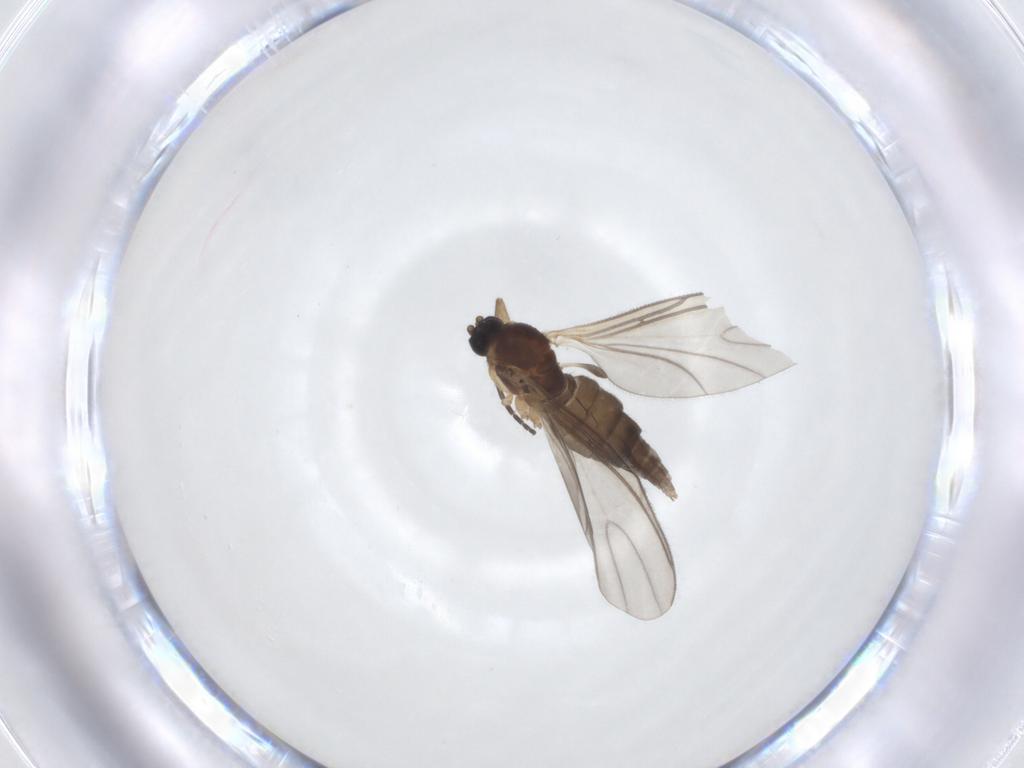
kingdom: Animalia
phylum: Arthropoda
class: Insecta
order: Diptera
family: Sciaridae
